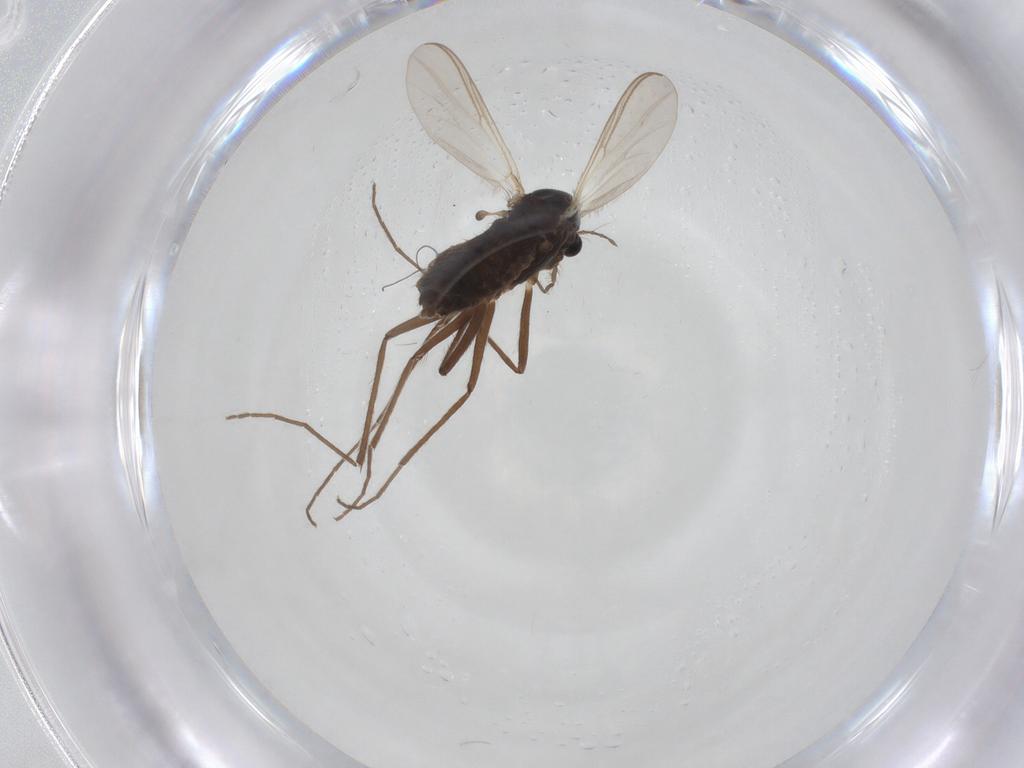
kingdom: Animalia
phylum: Arthropoda
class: Insecta
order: Diptera
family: Chironomidae
